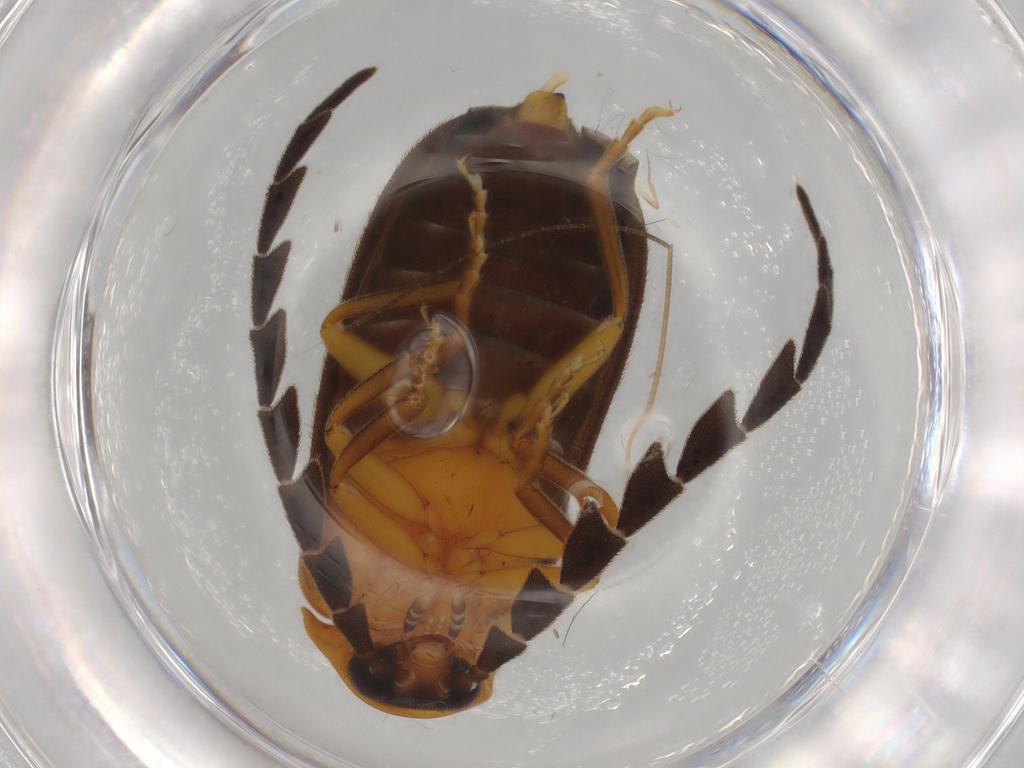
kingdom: Animalia
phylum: Arthropoda
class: Insecta
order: Coleoptera
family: Lampyridae
